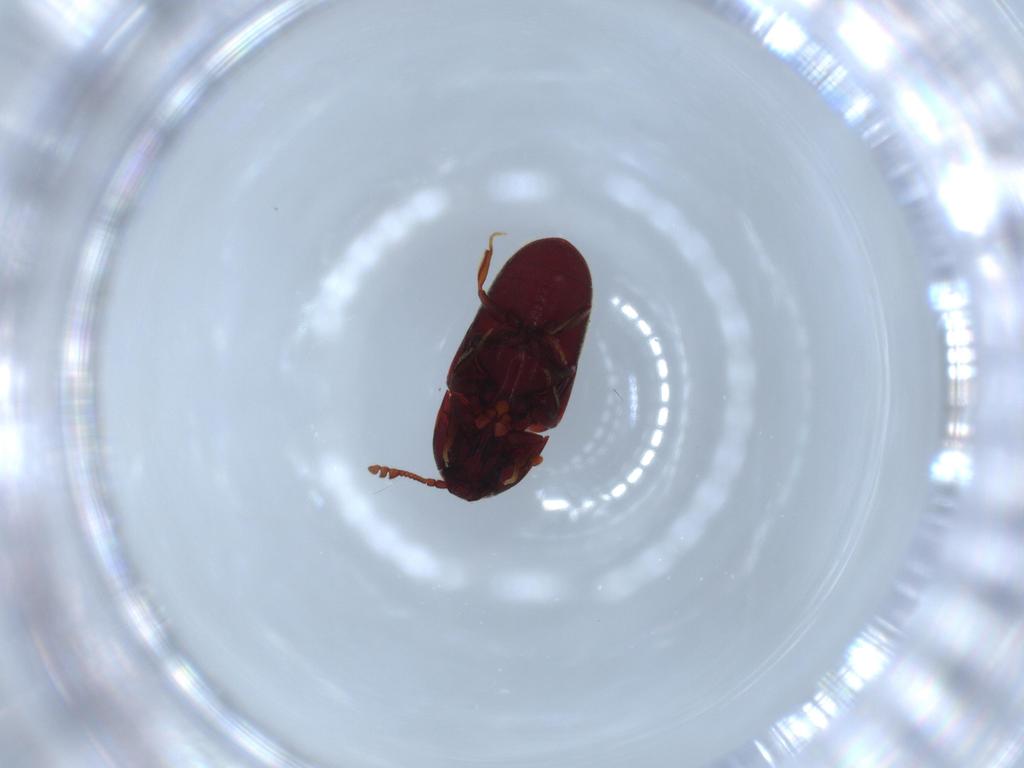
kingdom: Animalia
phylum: Arthropoda
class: Insecta
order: Coleoptera
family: Throscidae
